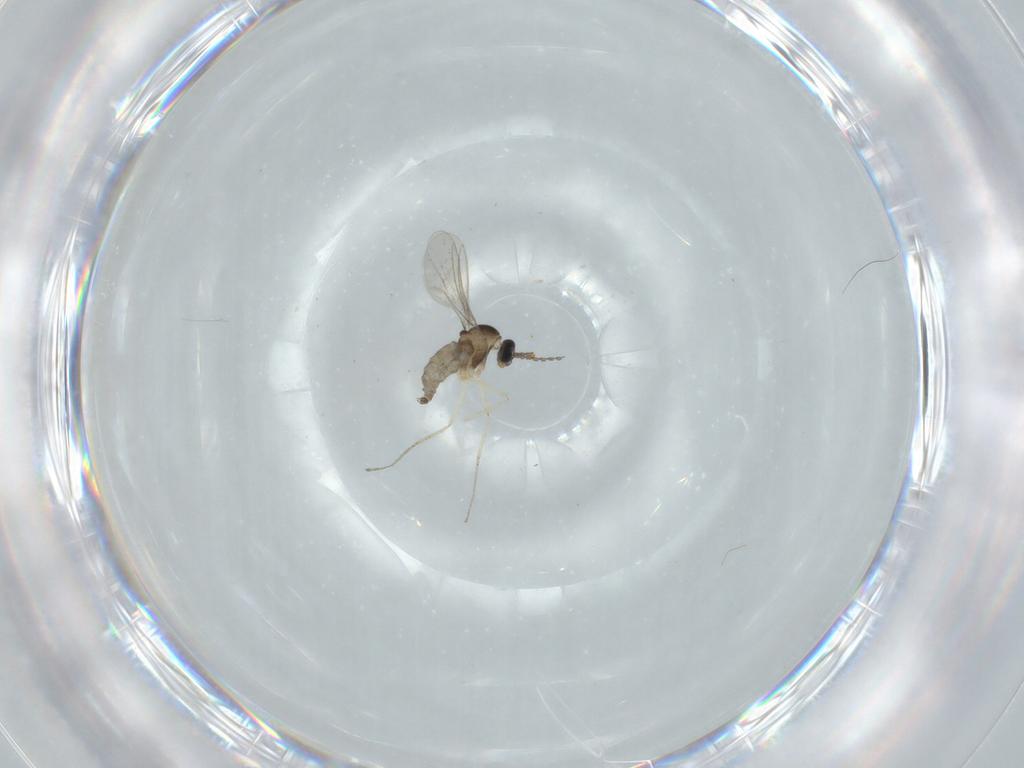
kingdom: Animalia
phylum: Arthropoda
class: Insecta
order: Diptera
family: Cecidomyiidae
